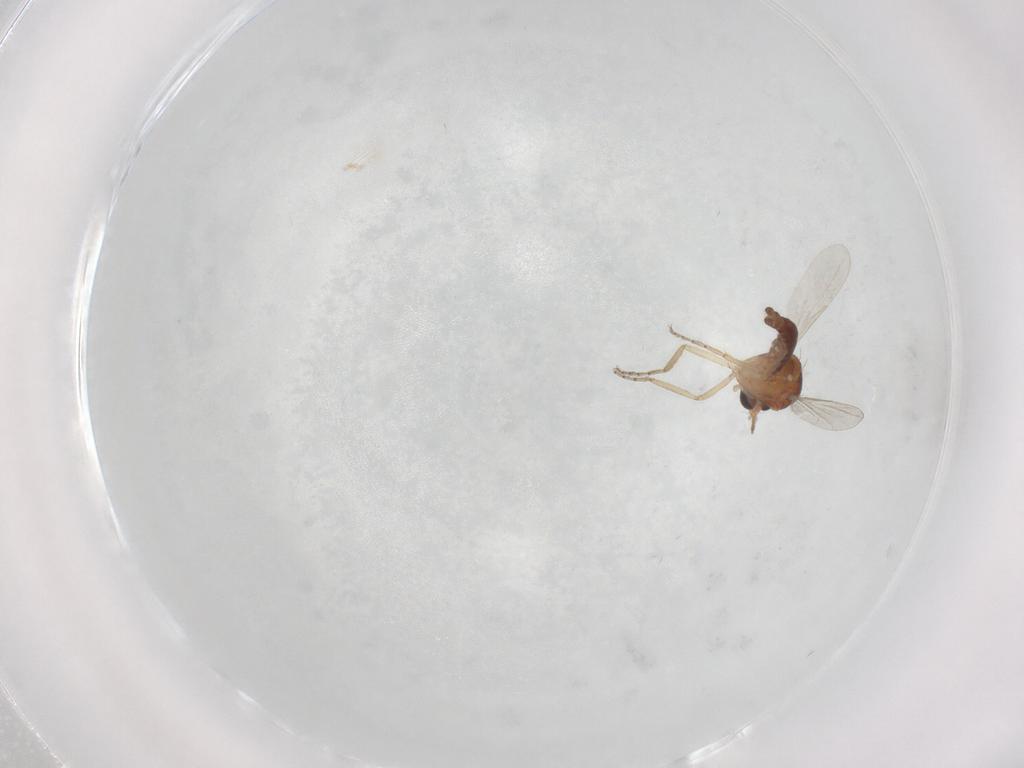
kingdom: Animalia
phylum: Arthropoda
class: Insecta
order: Diptera
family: Ceratopogonidae
